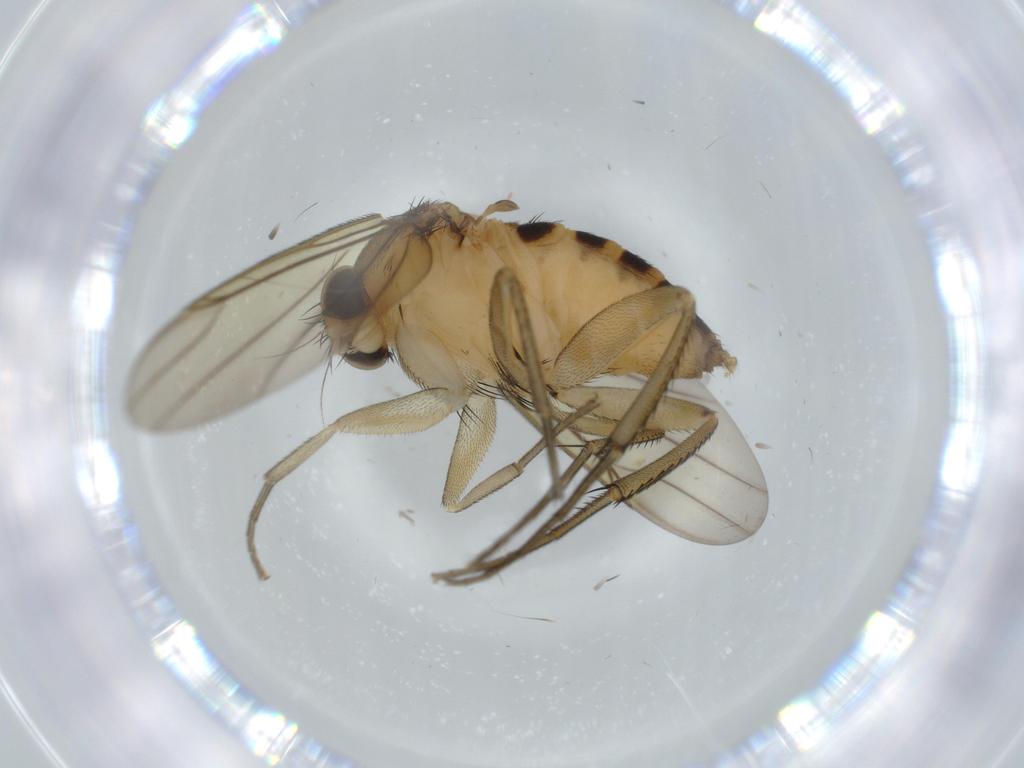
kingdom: Animalia
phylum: Arthropoda
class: Insecta
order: Diptera
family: Phoridae
